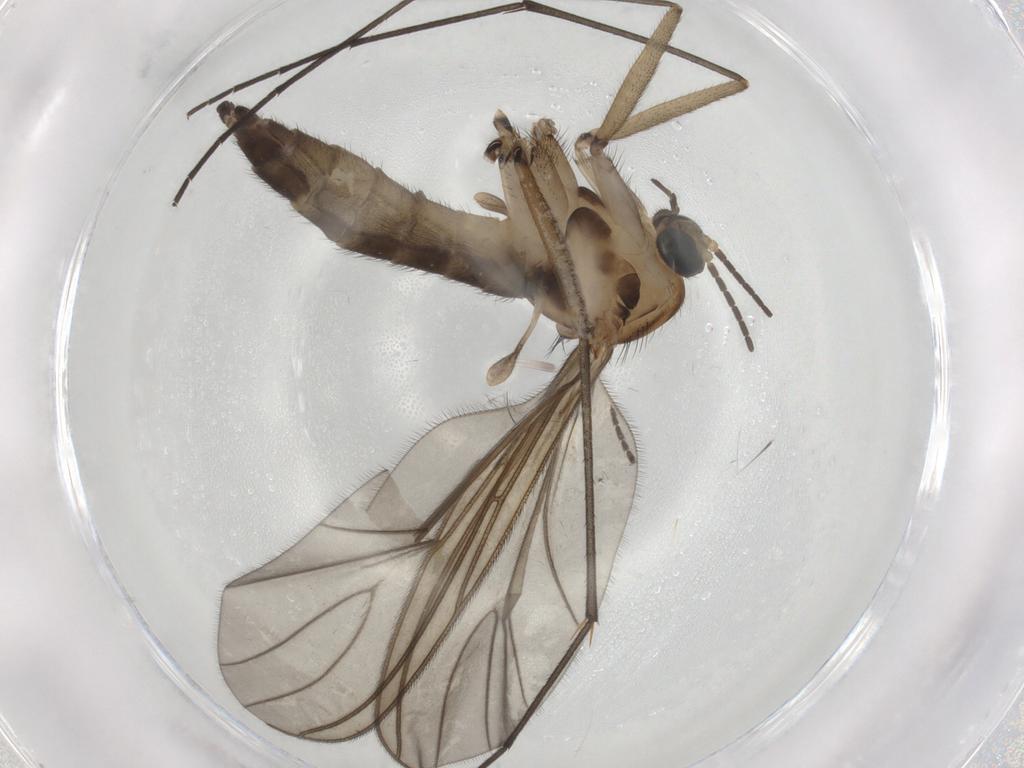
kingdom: Animalia
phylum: Arthropoda
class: Insecta
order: Diptera
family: Sciaridae
